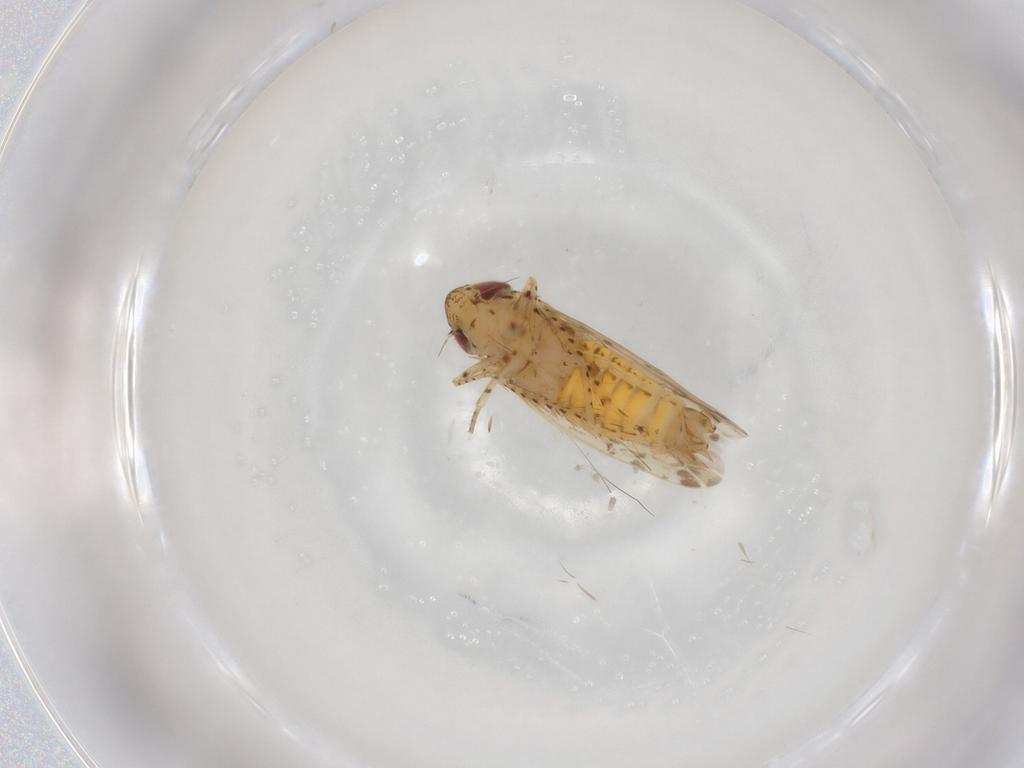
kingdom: Animalia
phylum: Arthropoda
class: Insecta
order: Hemiptera
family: Cicadellidae
